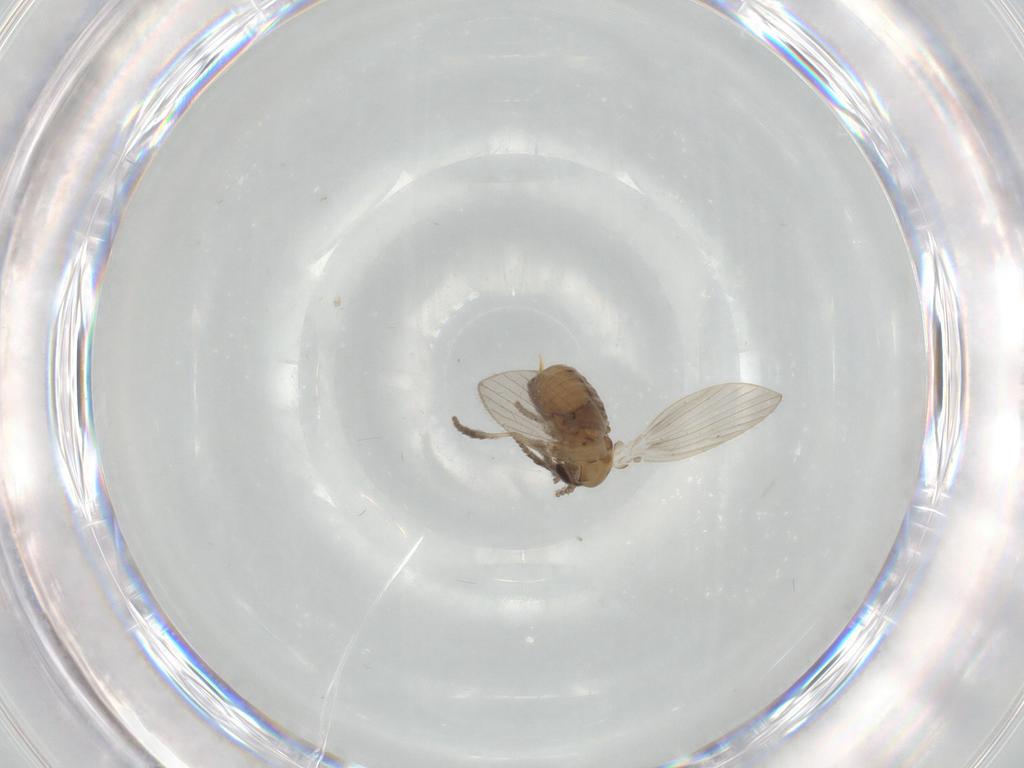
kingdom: Animalia
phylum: Arthropoda
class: Insecta
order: Diptera
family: Psychodidae
